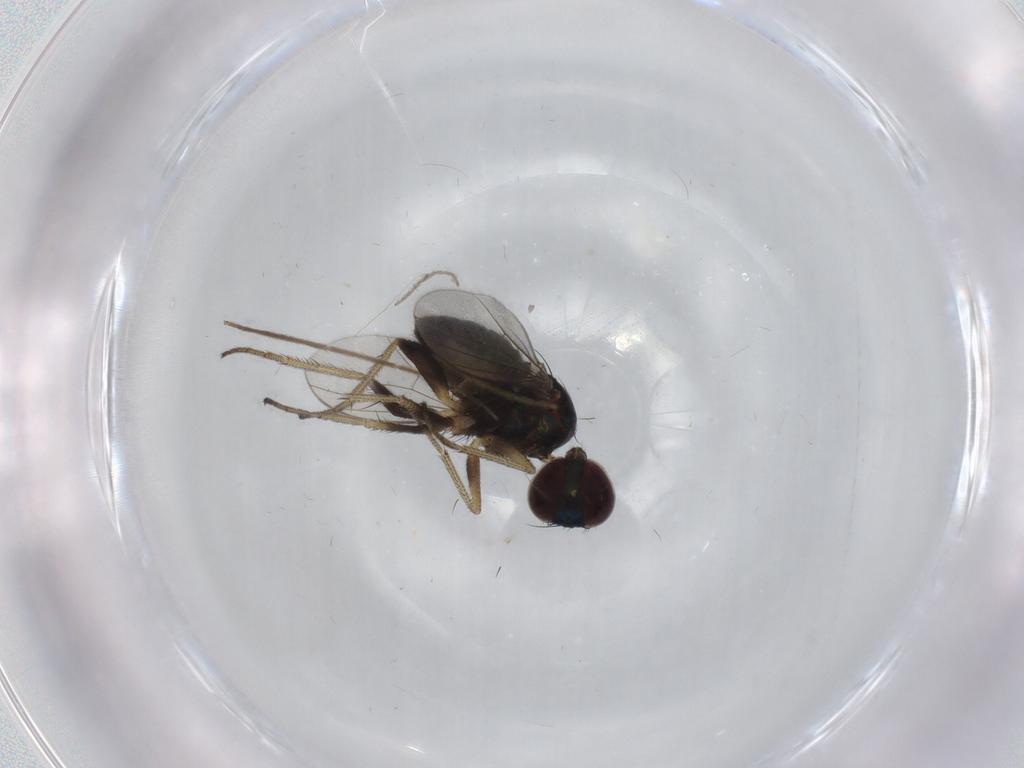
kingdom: Animalia
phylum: Arthropoda
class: Insecta
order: Diptera
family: Dolichopodidae
